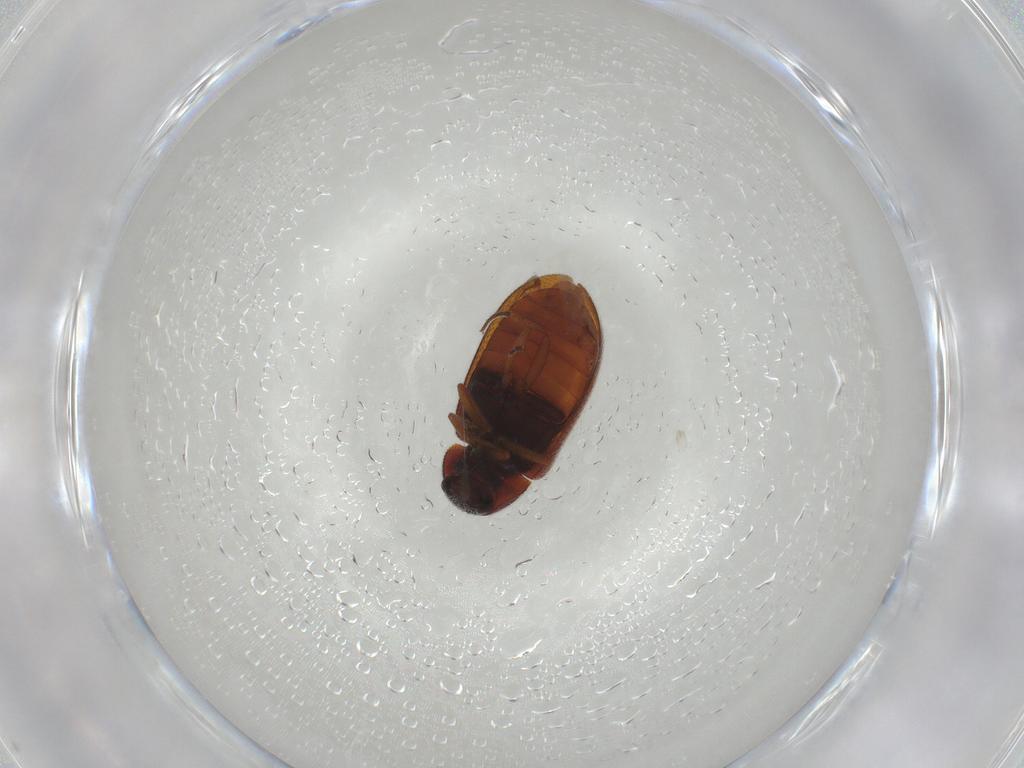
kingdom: Animalia
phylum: Arthropoda
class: Insecta
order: Coleoptera
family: Rhadalidae
